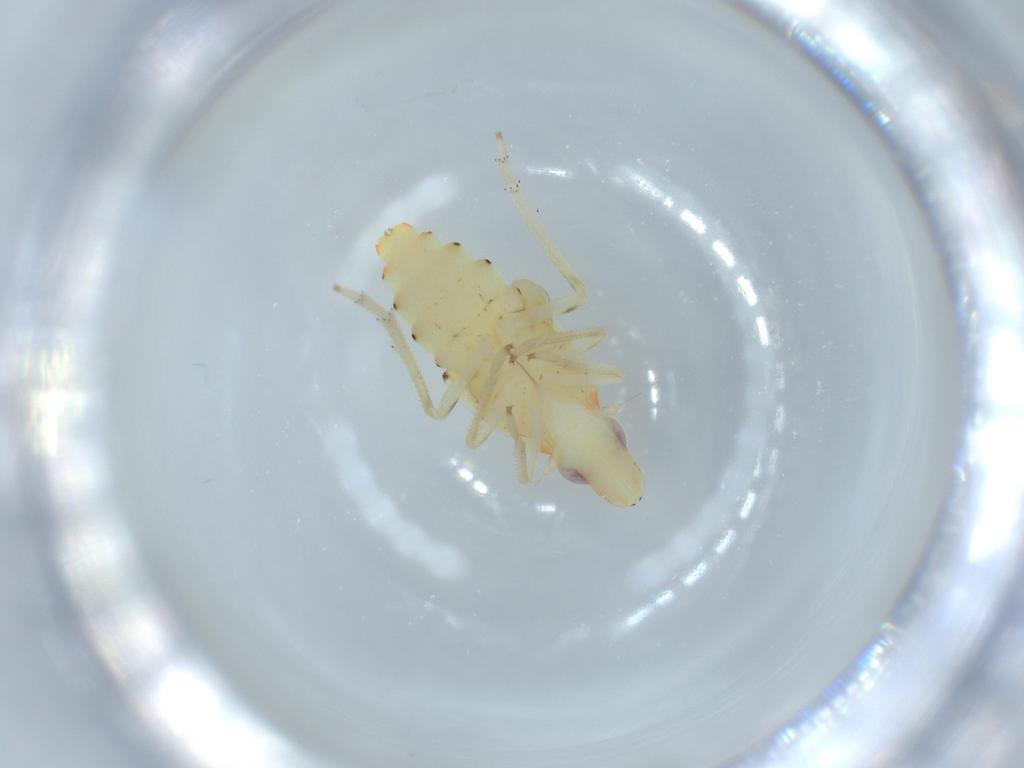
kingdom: Animalia
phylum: Arthropoda
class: Insecta
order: Hemiptera
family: Tropiduchidae
